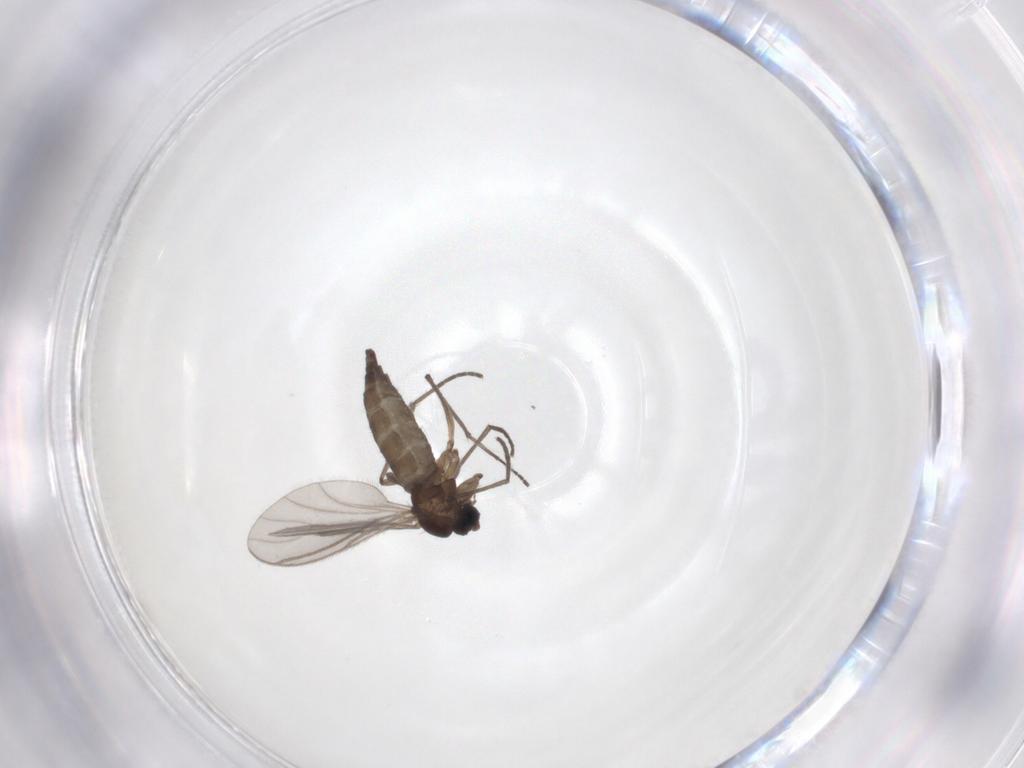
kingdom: Animalia
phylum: Arthropoda
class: Insecta
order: Diptera
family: Sciaridae
